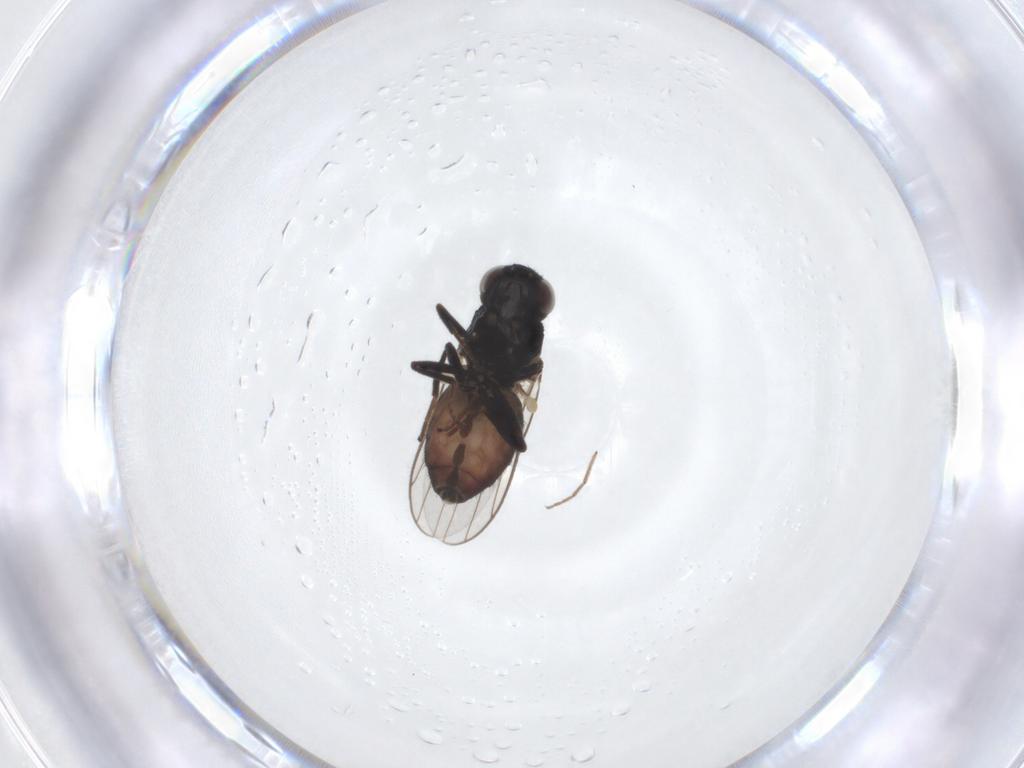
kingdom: Animalia
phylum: Arthropoda
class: Insecta
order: Diptera
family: Chloropidae
